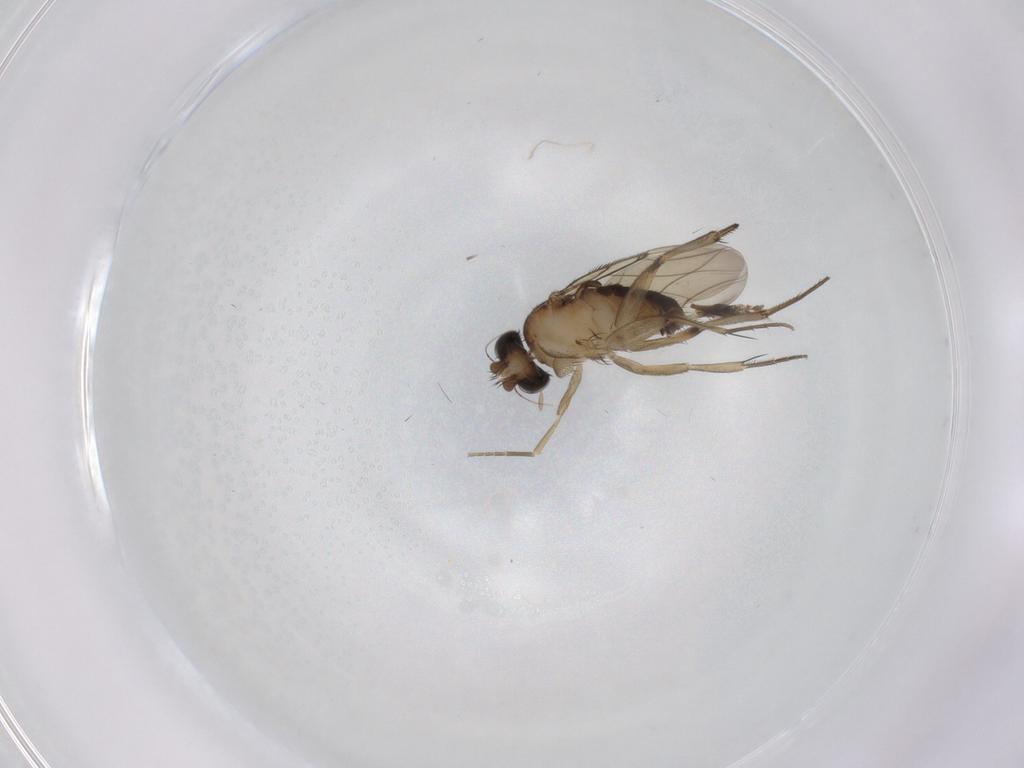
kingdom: Animalia
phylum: Arthropoda
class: Insecta
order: Diptera
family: Phoridae
